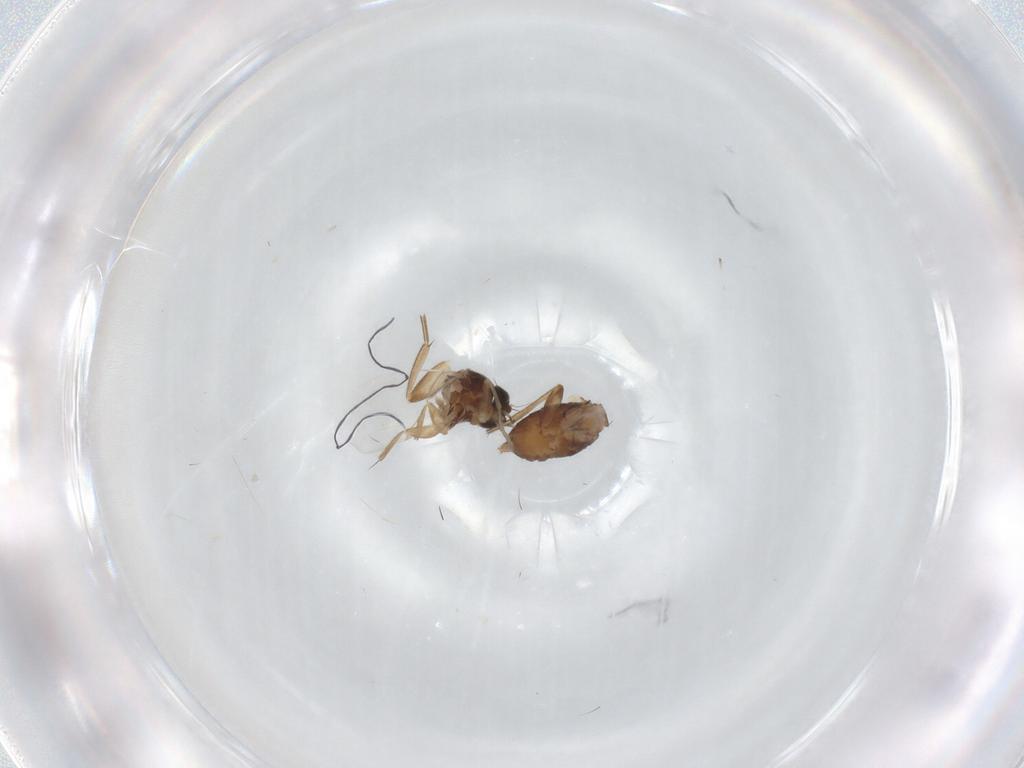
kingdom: Animalia
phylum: Arthropoda
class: Insecta
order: Diptera
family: Phoridae
